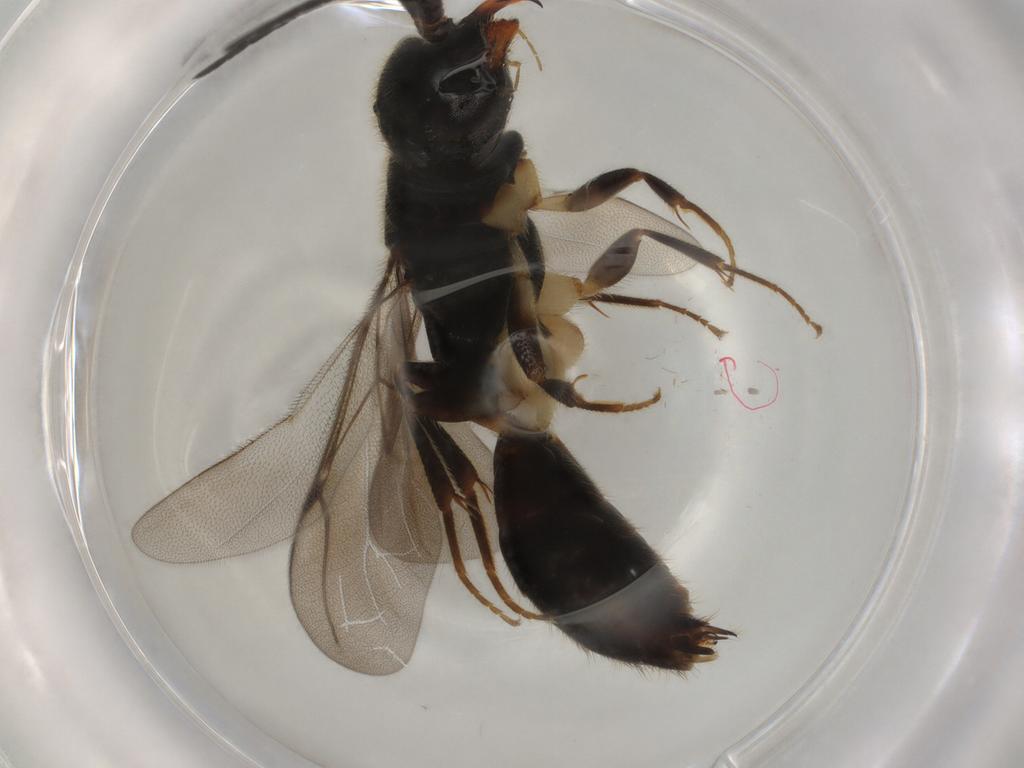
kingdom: Animalia
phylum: Arthropoda
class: Insecta
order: Hymenoptera
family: Bethylidae
